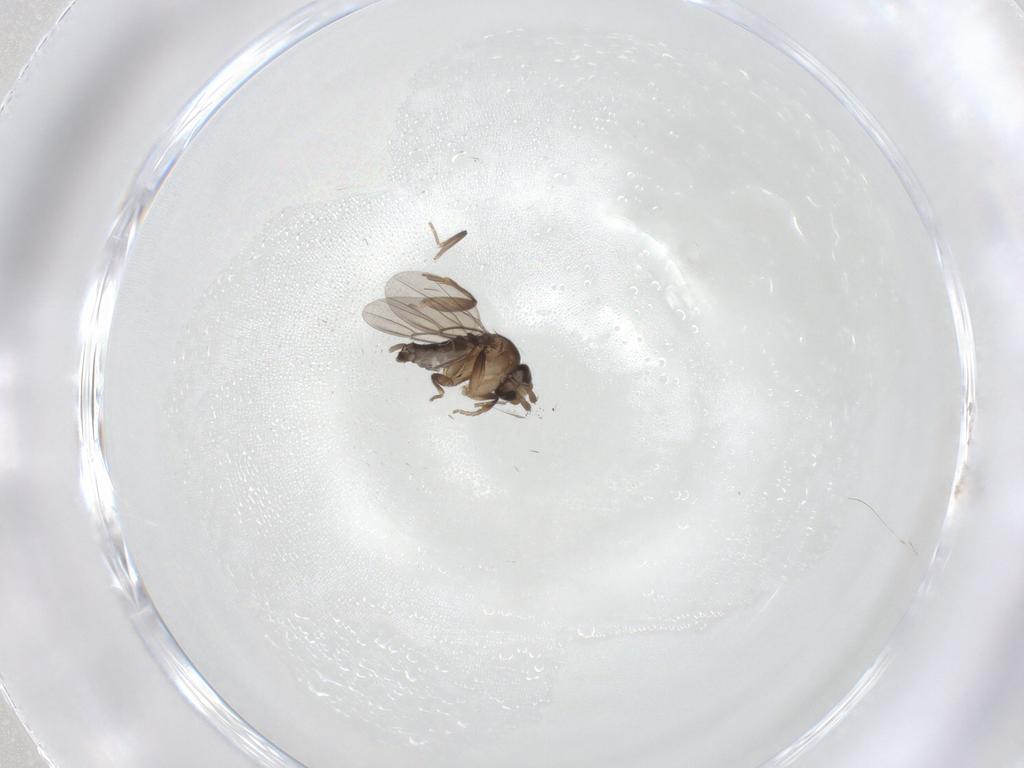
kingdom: Animalia
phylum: Arthropoda
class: Insecta
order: Diptera
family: Phoridae
